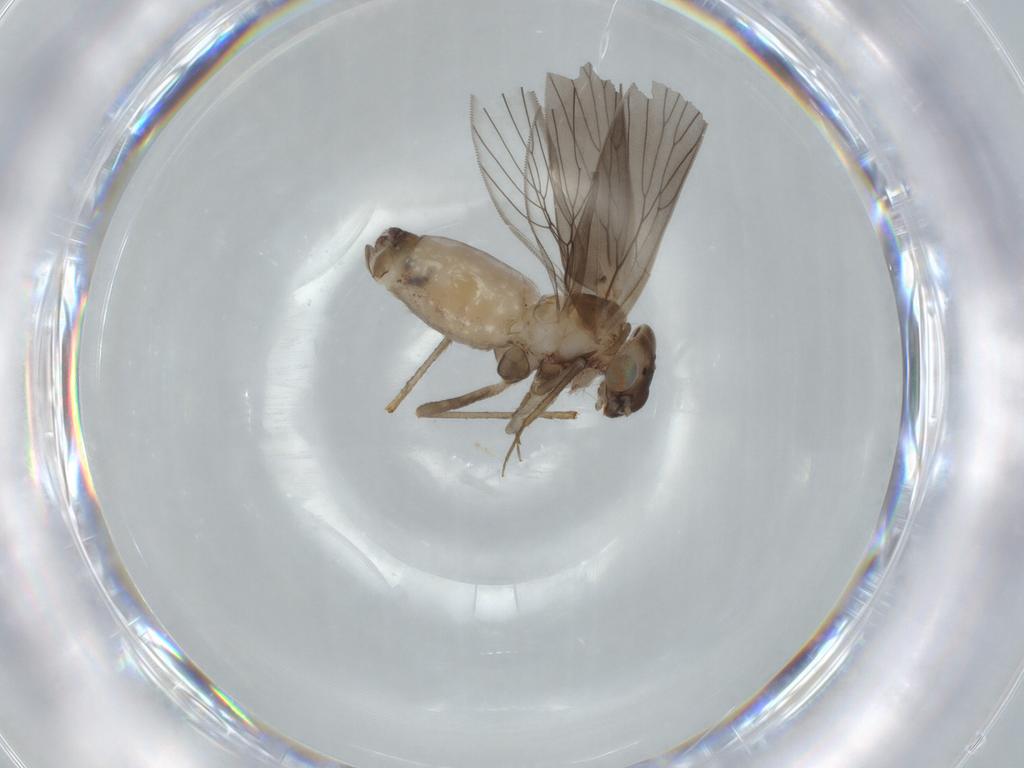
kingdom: Animalia
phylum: Arthropoda
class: Insecta
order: Psocodea
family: Lepidopsocidae
